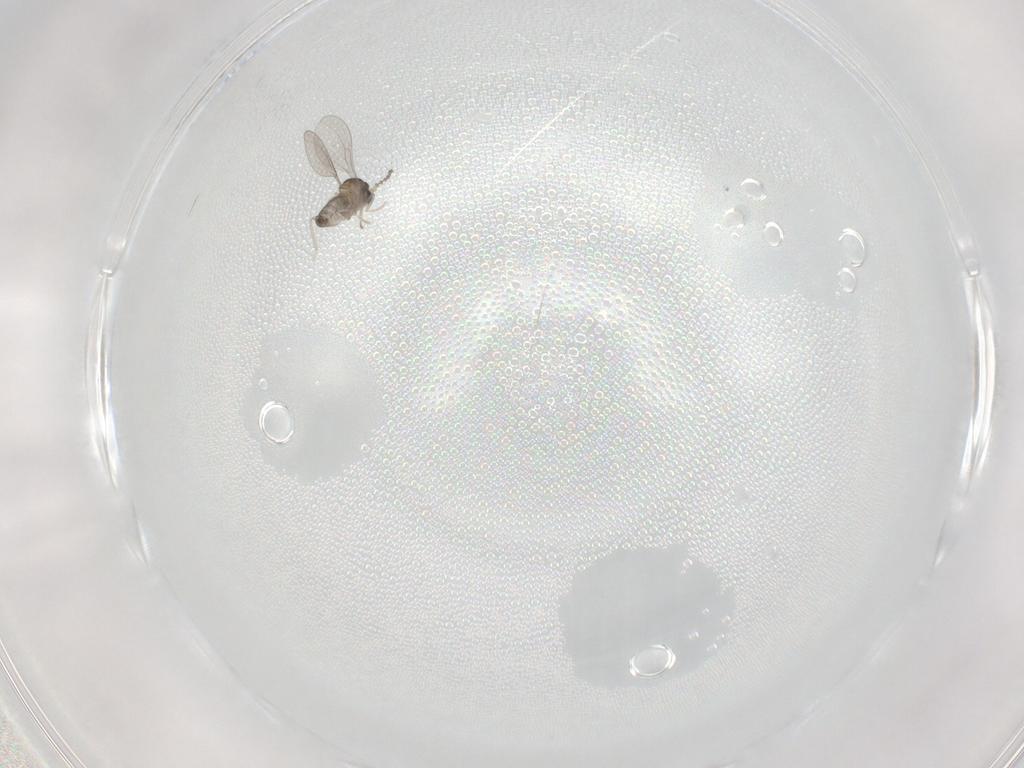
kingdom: Animalia
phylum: Arthropoda
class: Insecta
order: Diptera
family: Cecidomyiidae
